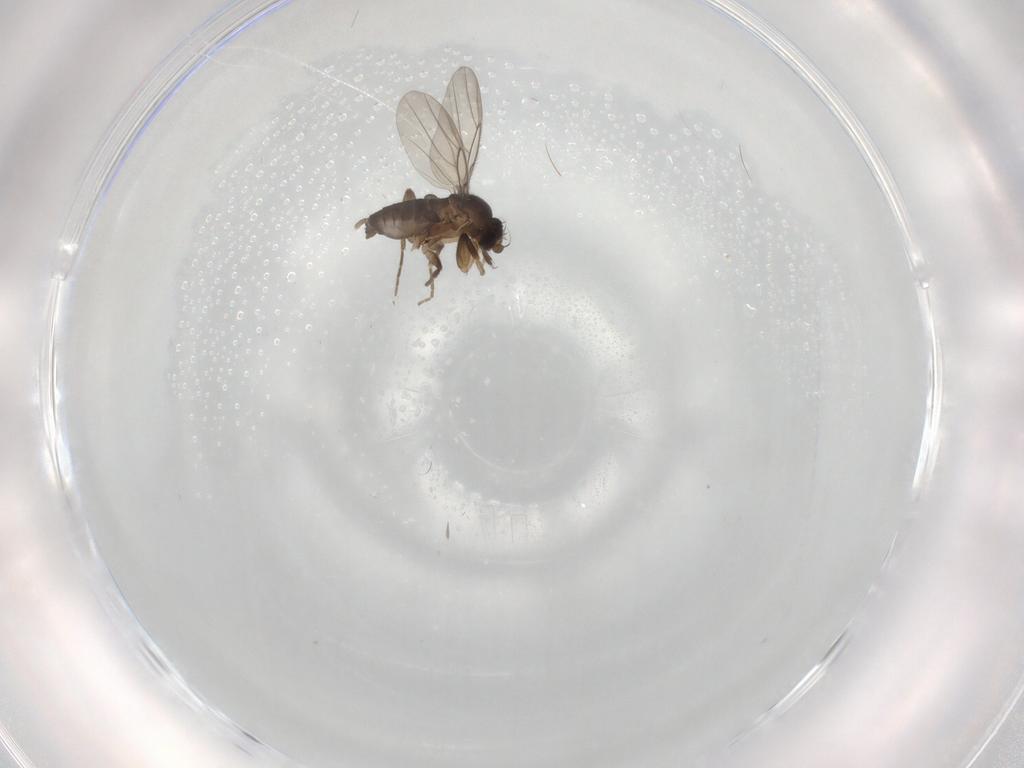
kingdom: Animalia
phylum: Arthropoda
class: Insecta
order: Diptera
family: Phoridae
